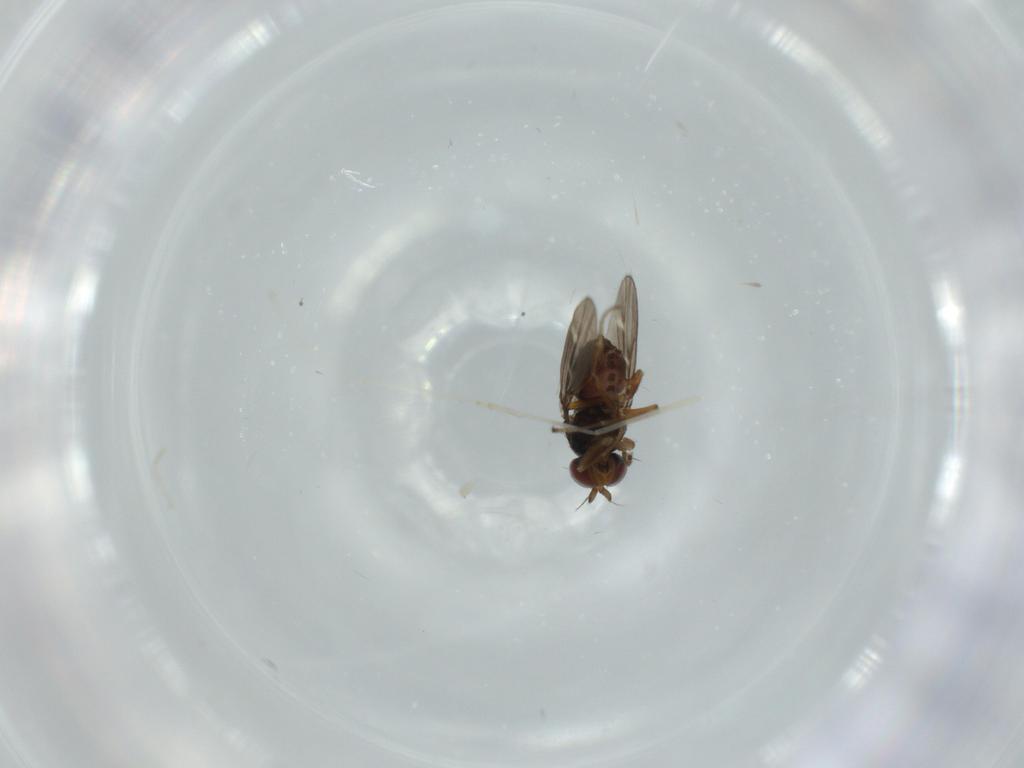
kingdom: Animalia
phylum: Arthropoda
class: Insecta
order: Diptera
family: Ephydridae
